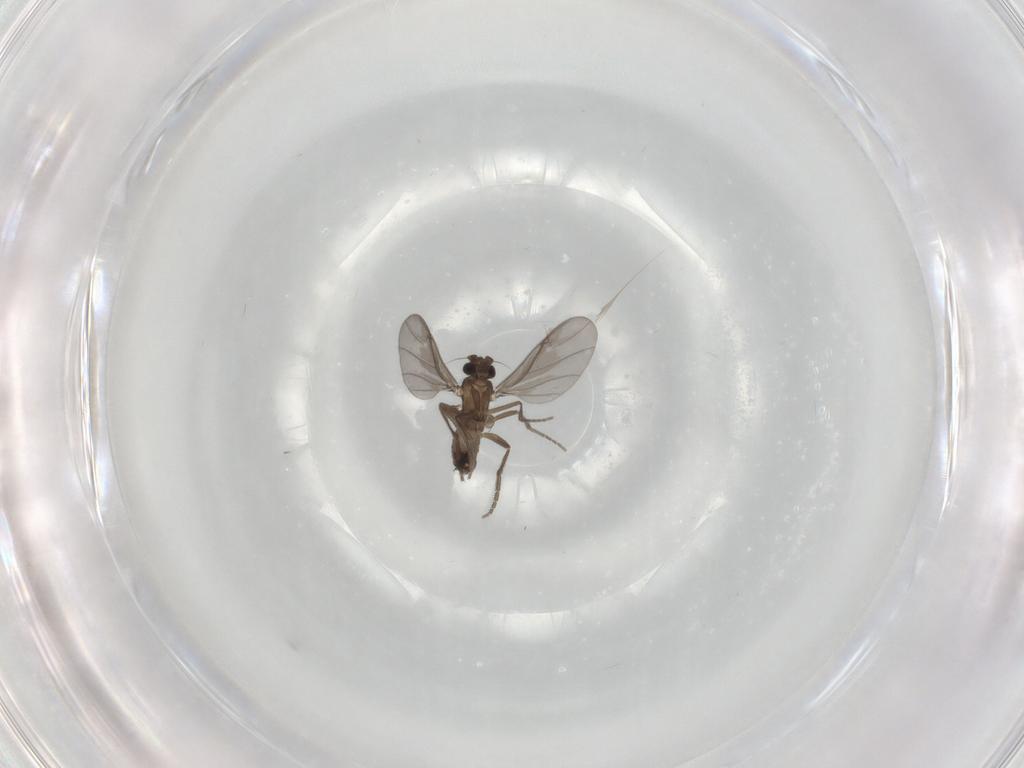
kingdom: Animalia
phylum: Arthropoda
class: Insecta
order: Diptera
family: Phoridae
